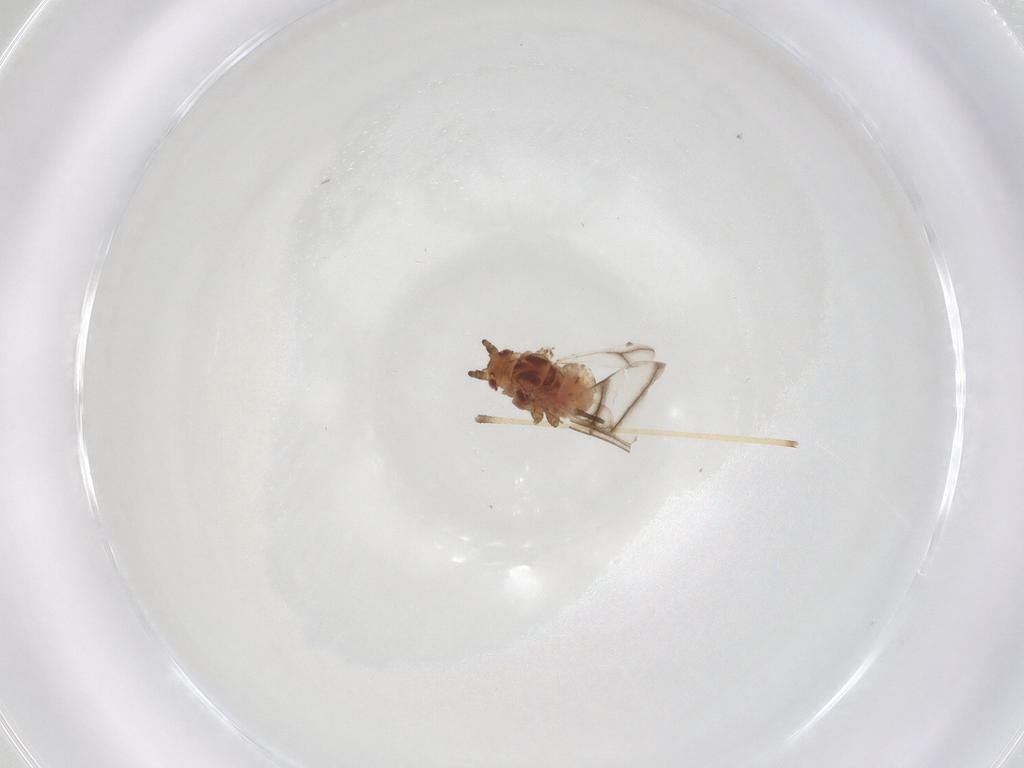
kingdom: Animalia
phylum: Arthropoda
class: Insecta
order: Hemiptera
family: Aphididae
